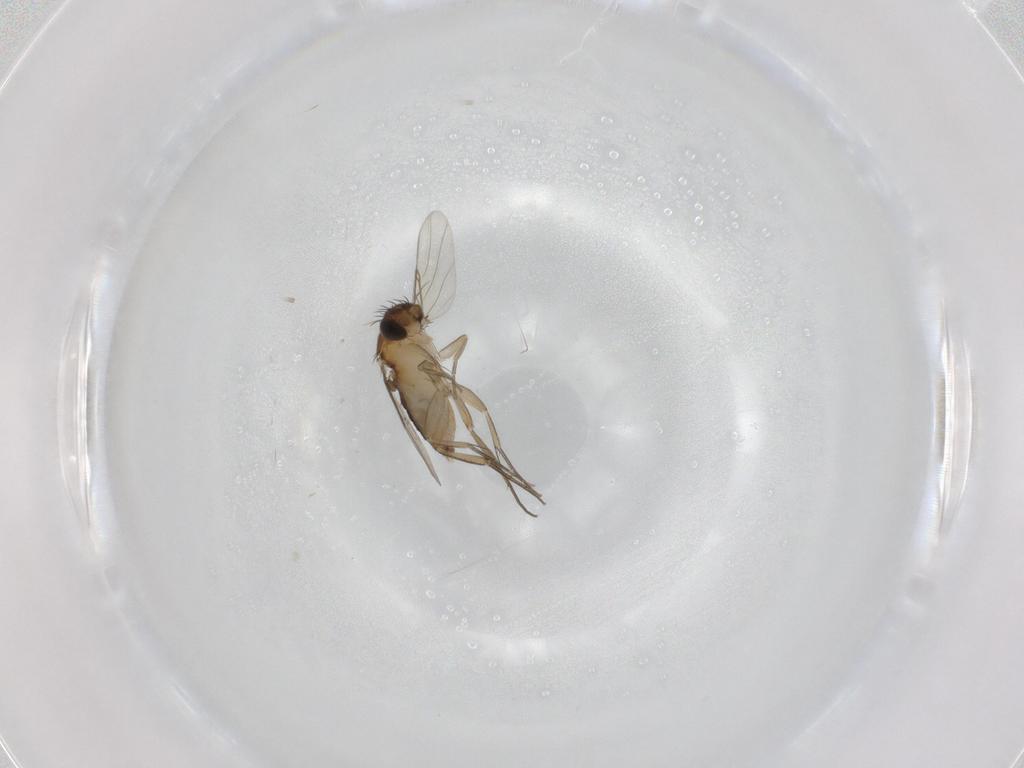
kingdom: Animalia
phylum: Arthropoda
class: Insecta
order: Diptera
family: Phoridae
